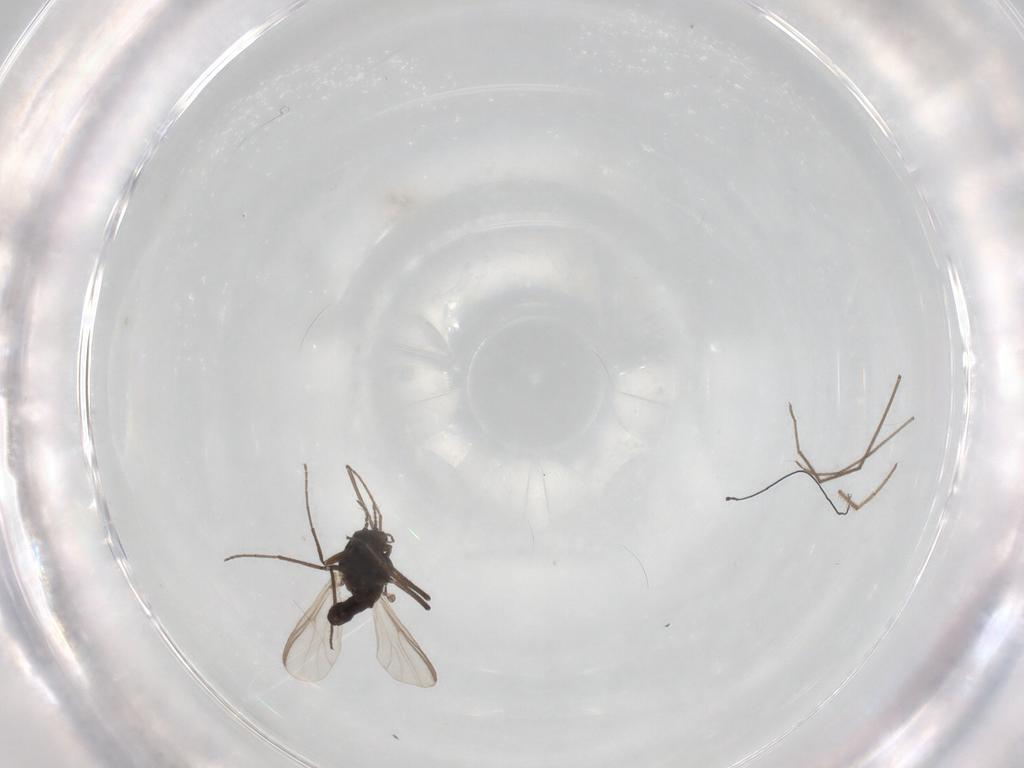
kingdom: Animalia
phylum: Arthropoda
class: Insecta
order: Diptera
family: Chironomidae
